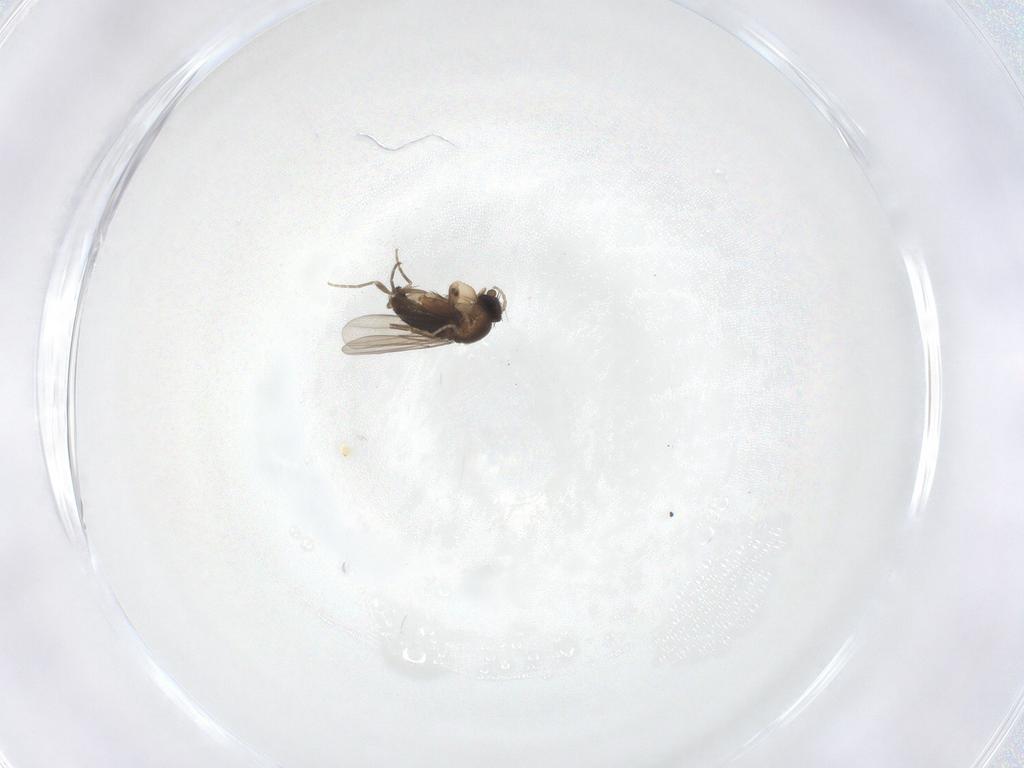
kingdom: Animalia
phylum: Arthropoda
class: Insecta
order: Diptera
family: Phoridae
